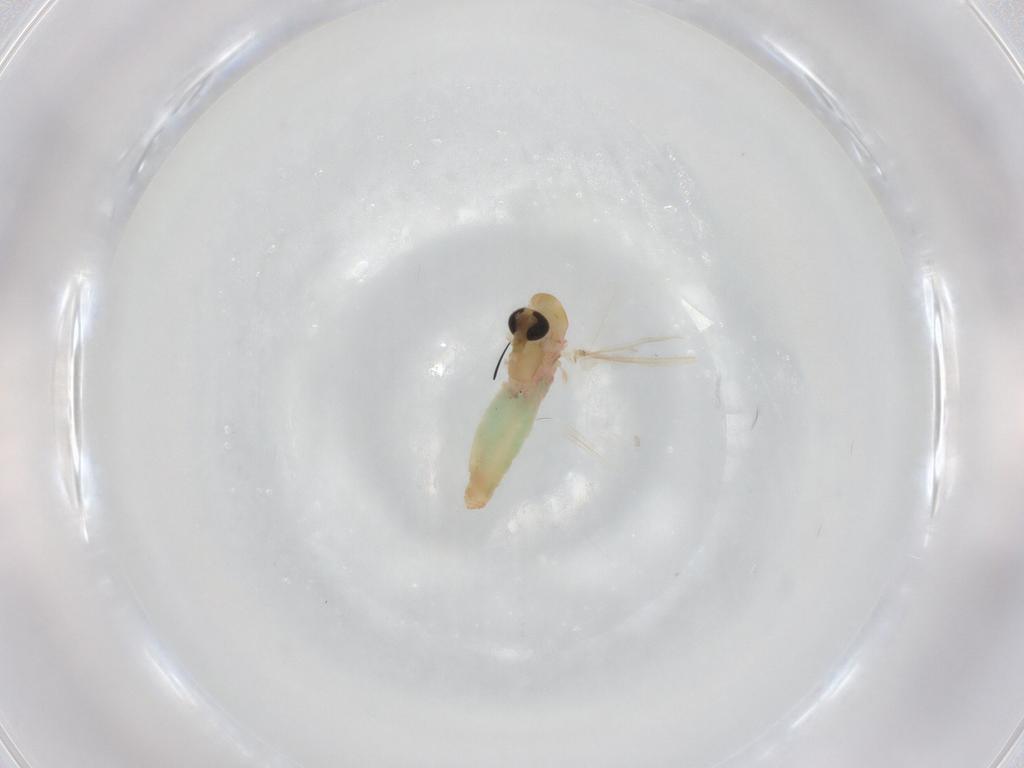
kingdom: Animalia
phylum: Arthropoda
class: Insecta
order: Diptera
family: Chironomidae
